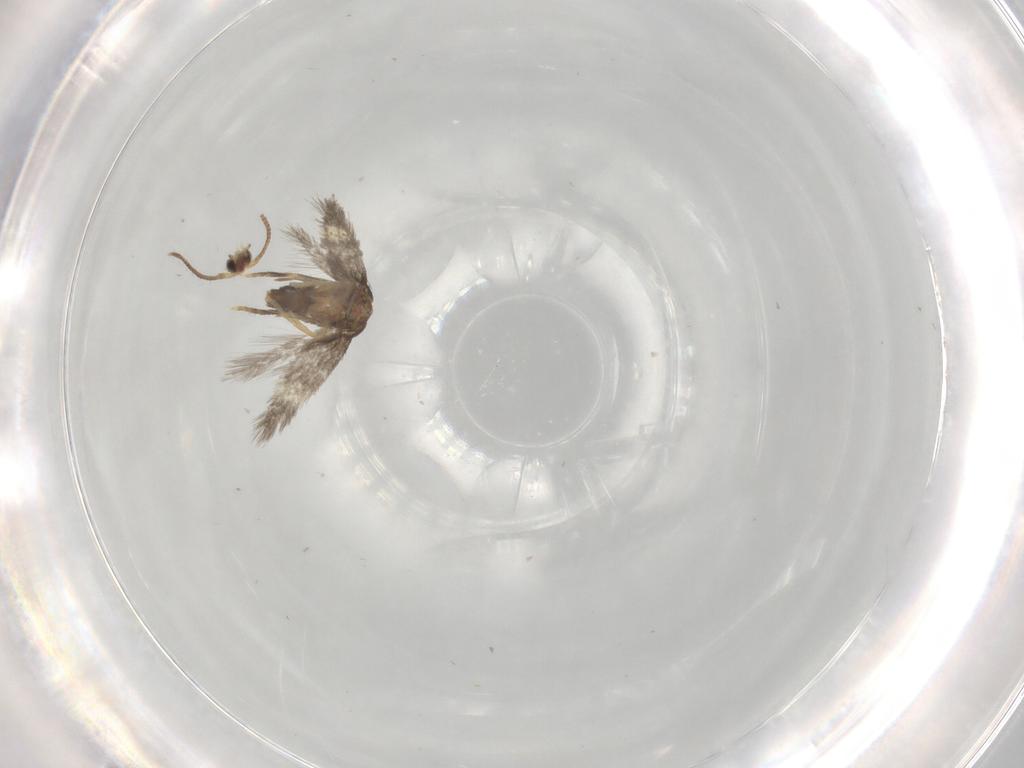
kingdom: Animalia
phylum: Arthropoda
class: Insecta
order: Lepidoptera
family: Nepticulidae
